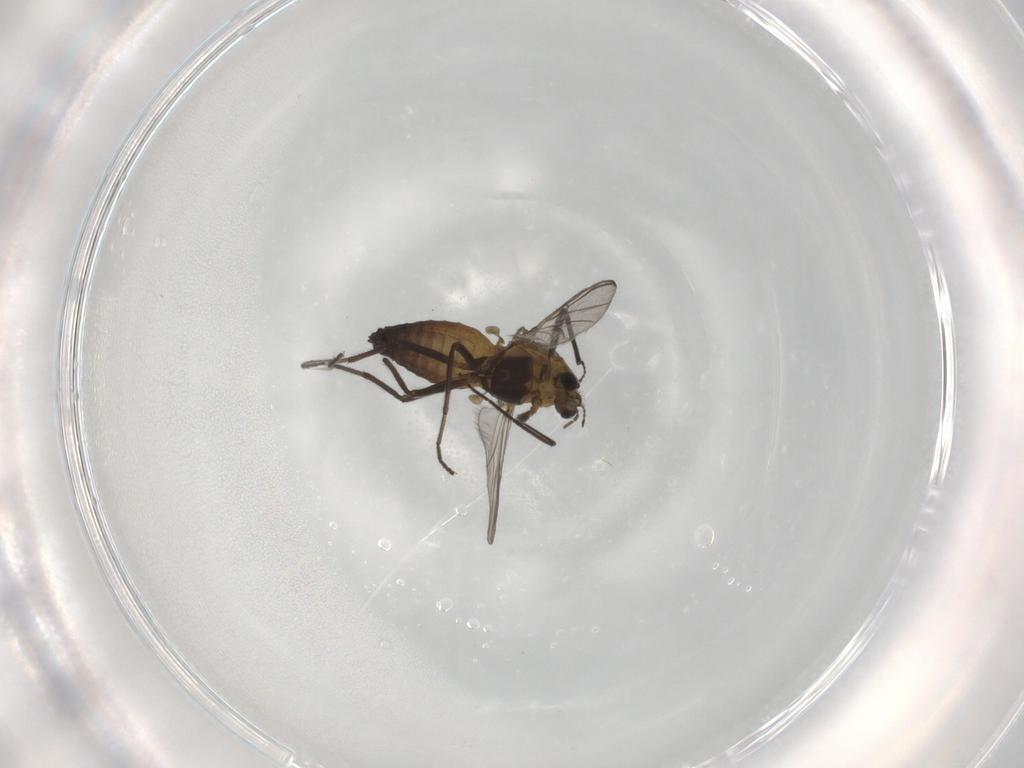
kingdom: Animalia
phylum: Arthropoda
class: Insecta
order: Diptera
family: Chironomidae
